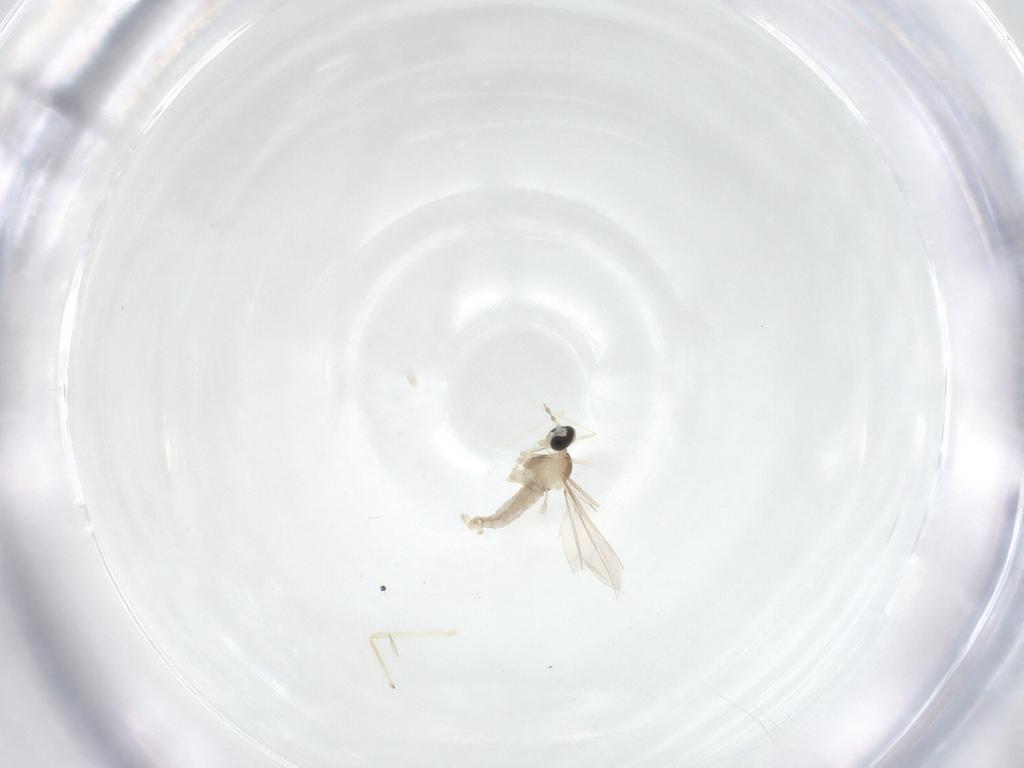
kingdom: Animalia
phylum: Arthropoda
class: Insecta
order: Diptera
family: Cecidomyiidae
